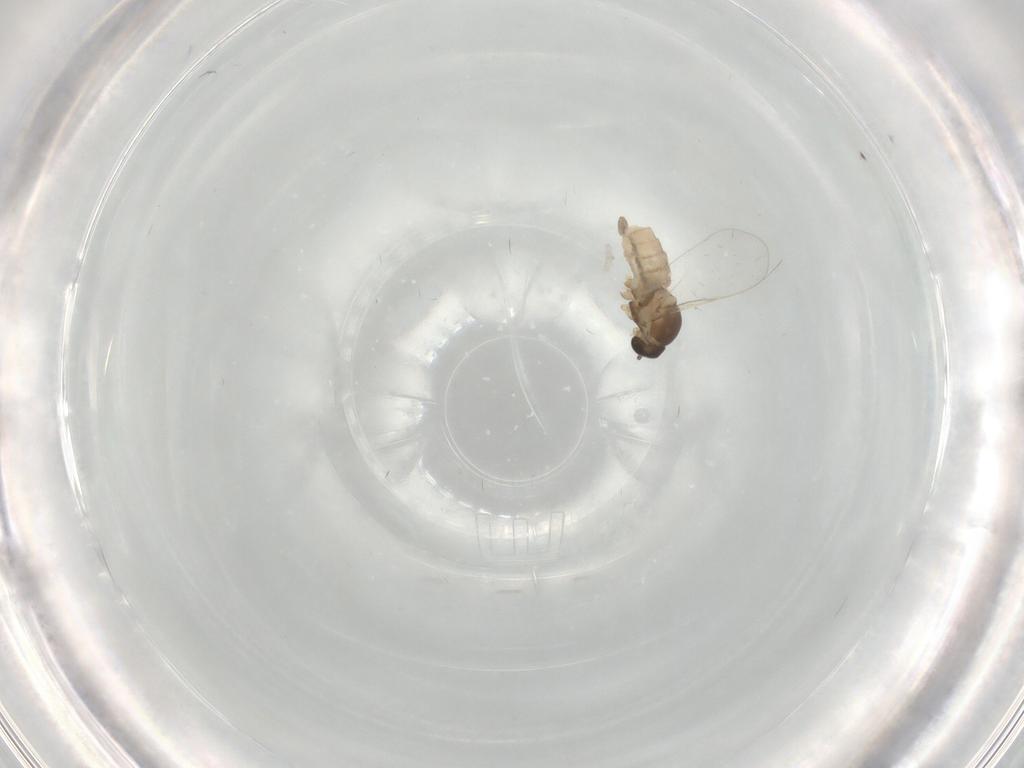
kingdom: Animalia
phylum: Arthropoda
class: Insecta
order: Diptera
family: Cecidomyiidae
